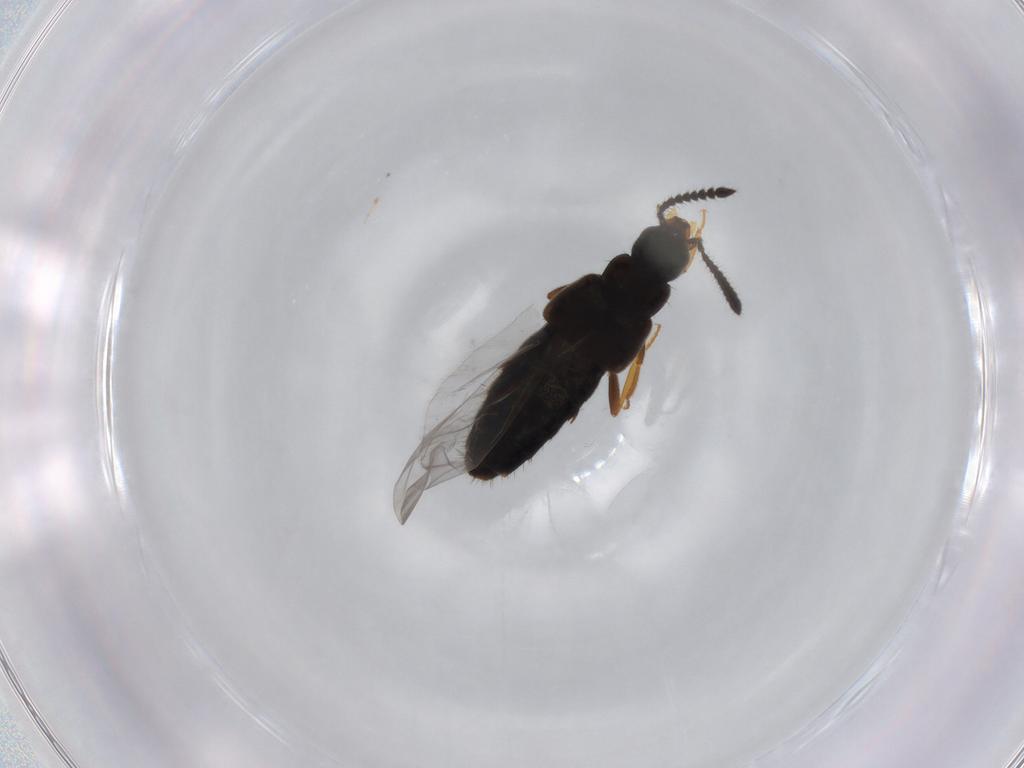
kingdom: Animalia
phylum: Arthropoda
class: Insecta
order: Coleoptera
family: Staphylinidae
